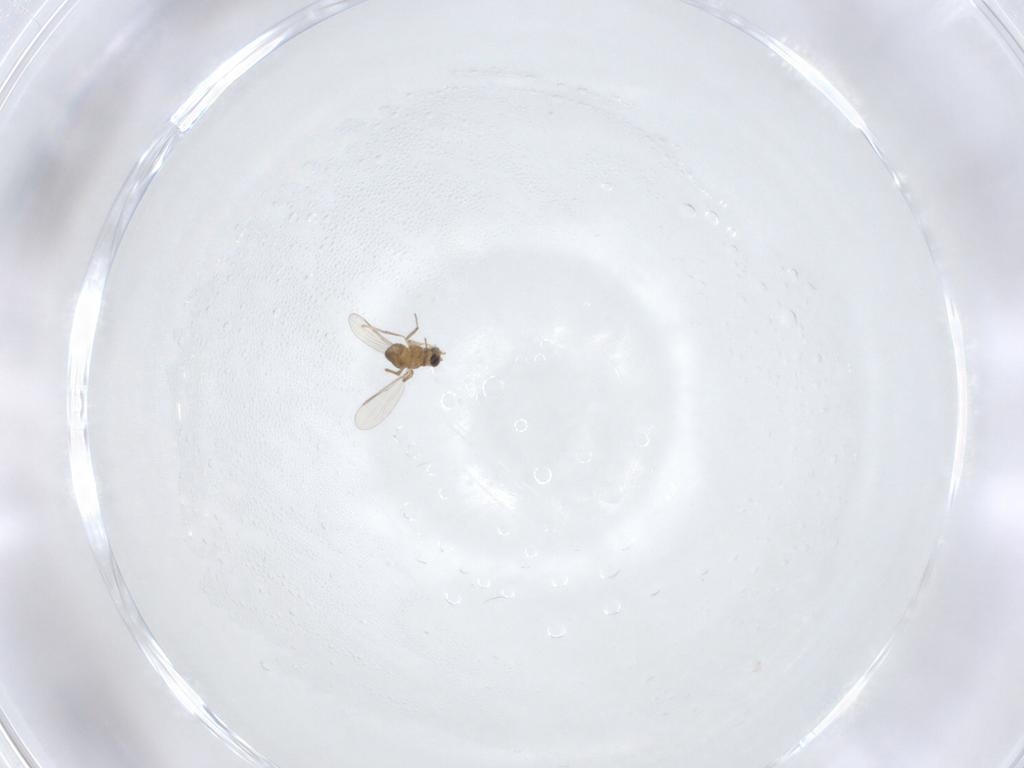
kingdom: Animalia
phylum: Arthropoda
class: Insecta
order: Diptera
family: Chironomidae
